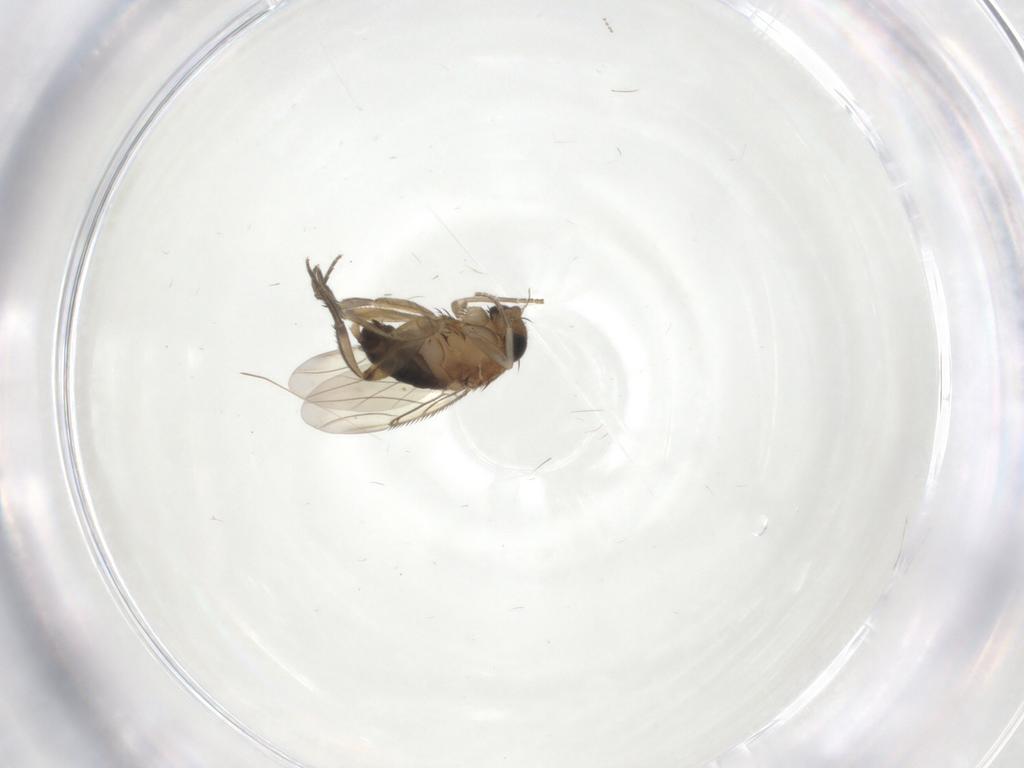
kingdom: Animalia
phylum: Arthropoda
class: Insecta
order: Diptera
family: Phoridae
